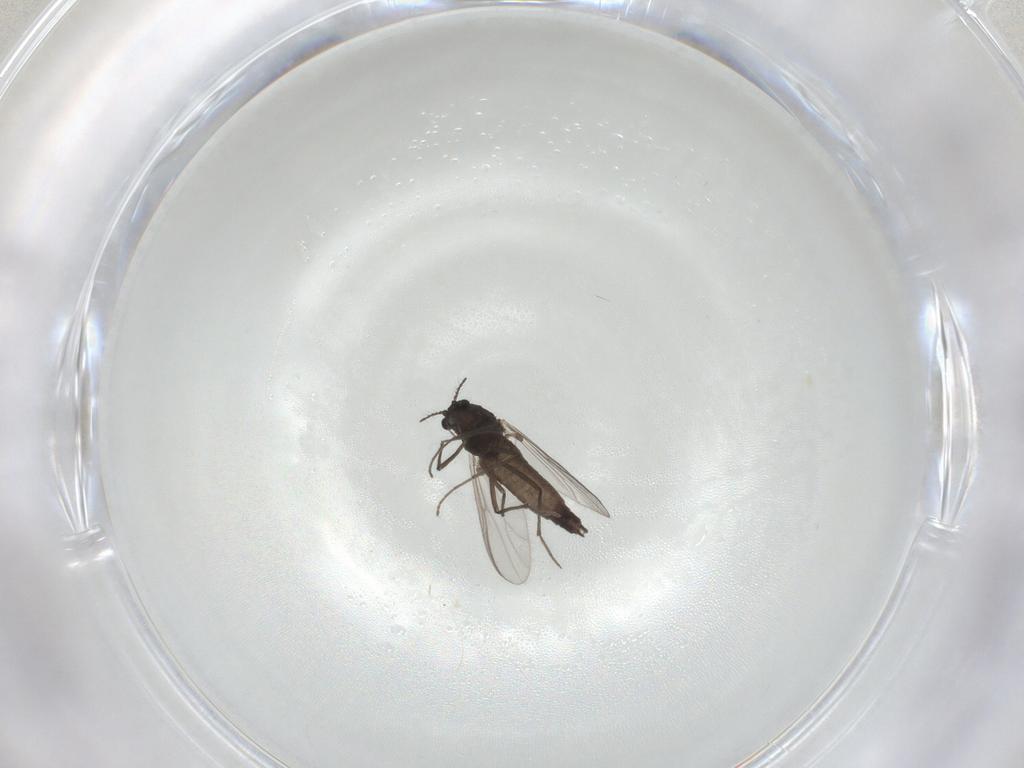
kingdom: Animalia
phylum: Arthropoda
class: Insecta
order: Diptera
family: Chironomidae
